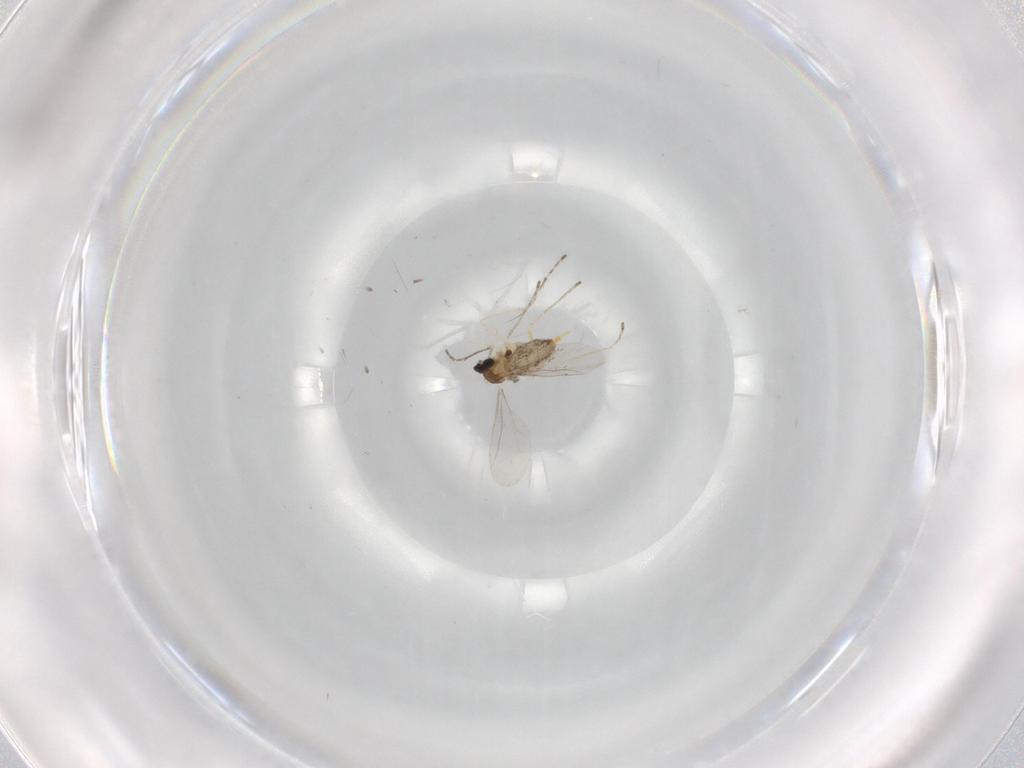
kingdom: Animalia
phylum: Arthropoda
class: Insecta
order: Diptera
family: Cecidomyiidae
